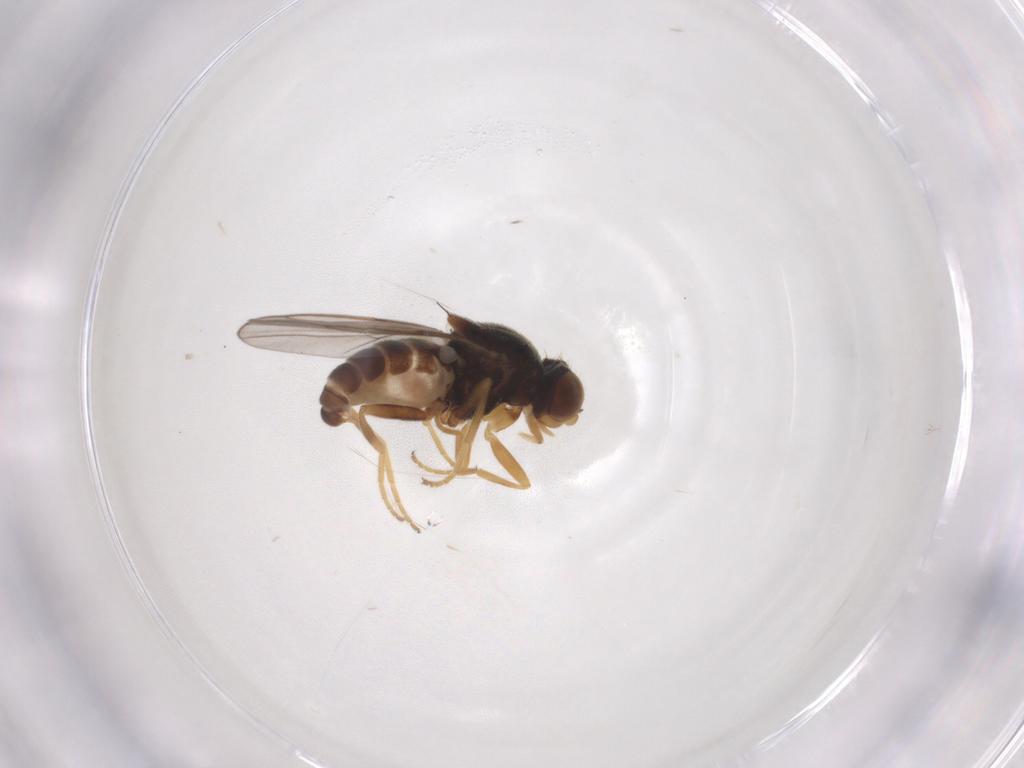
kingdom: Animalia
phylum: Arthropoda
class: Insecta
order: Diptera
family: Chloropidae
